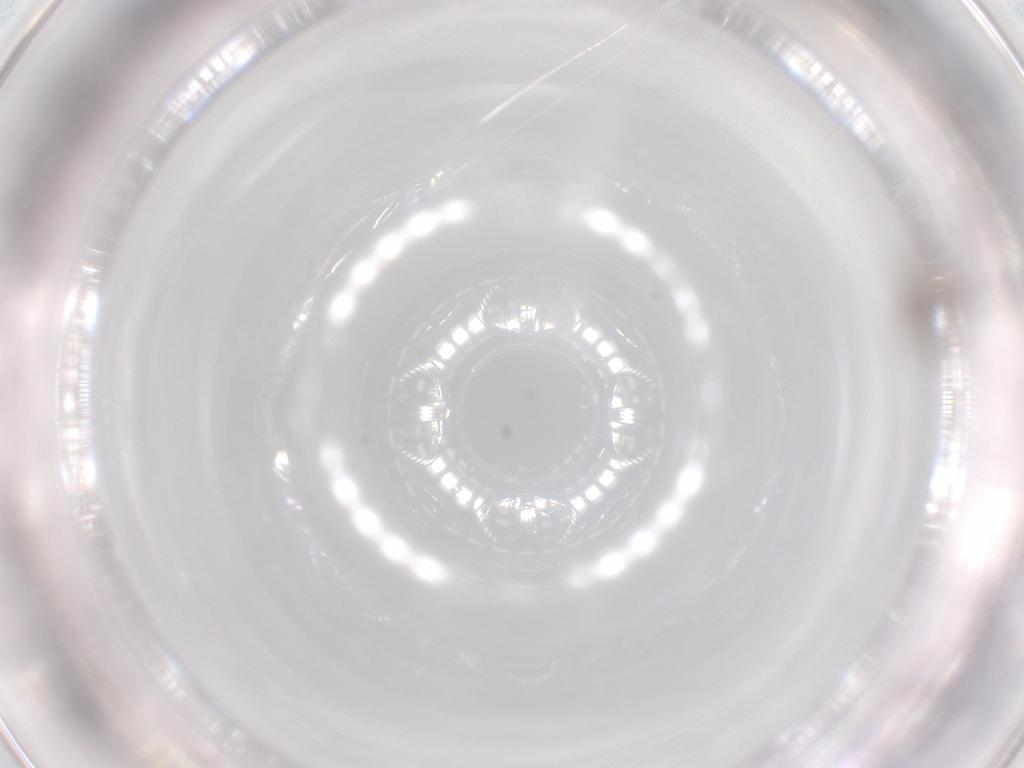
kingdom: Animalia
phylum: Arthropoda
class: Insecta
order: Diptera
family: Chironomidae
